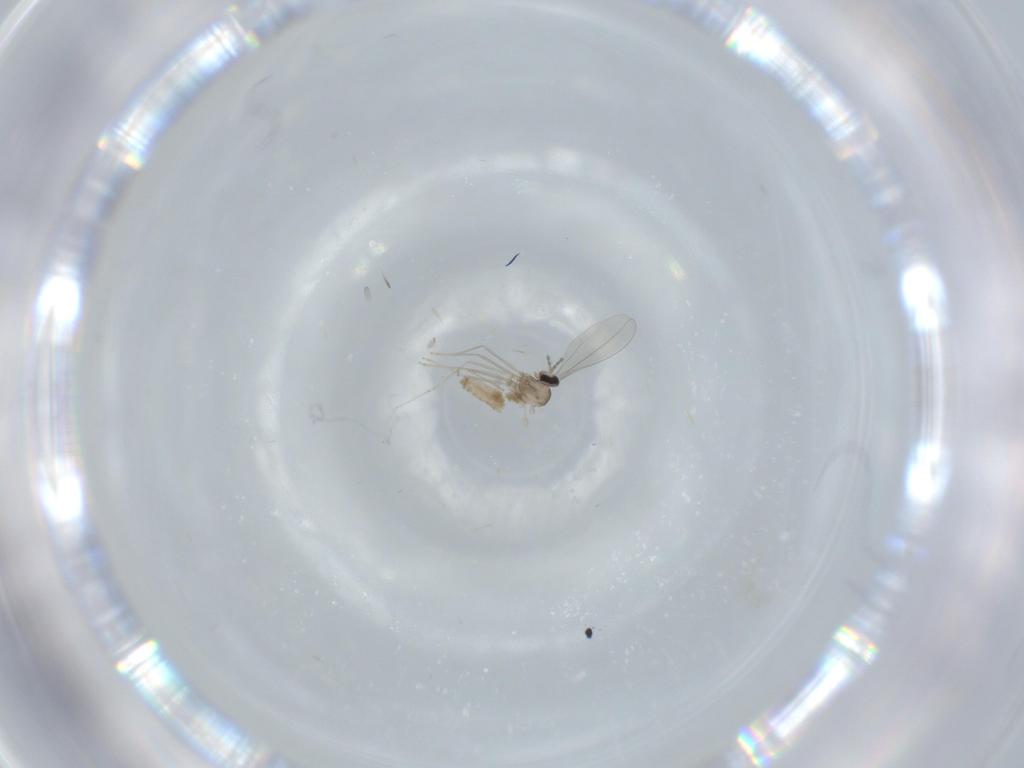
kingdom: Animalia
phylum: Arthropoda
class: Insecta
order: Diptera
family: Cecidomyiidae
